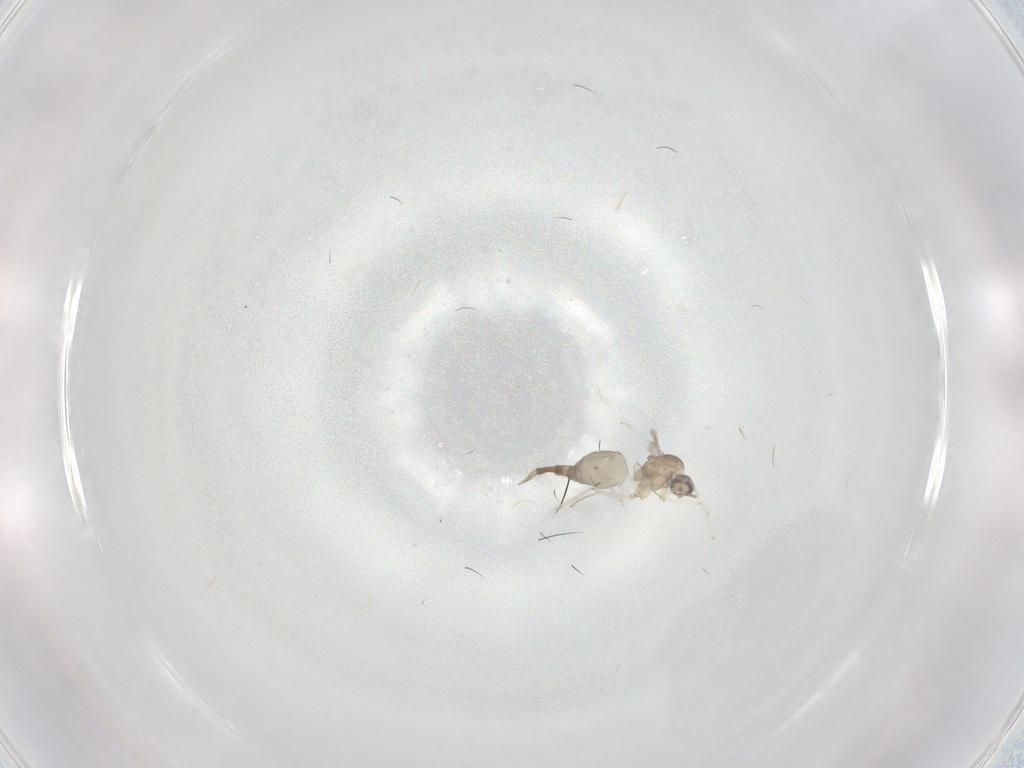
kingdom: Animalia
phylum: Arthropoda
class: Insecta
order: Diptera
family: Cecidomyiidae
